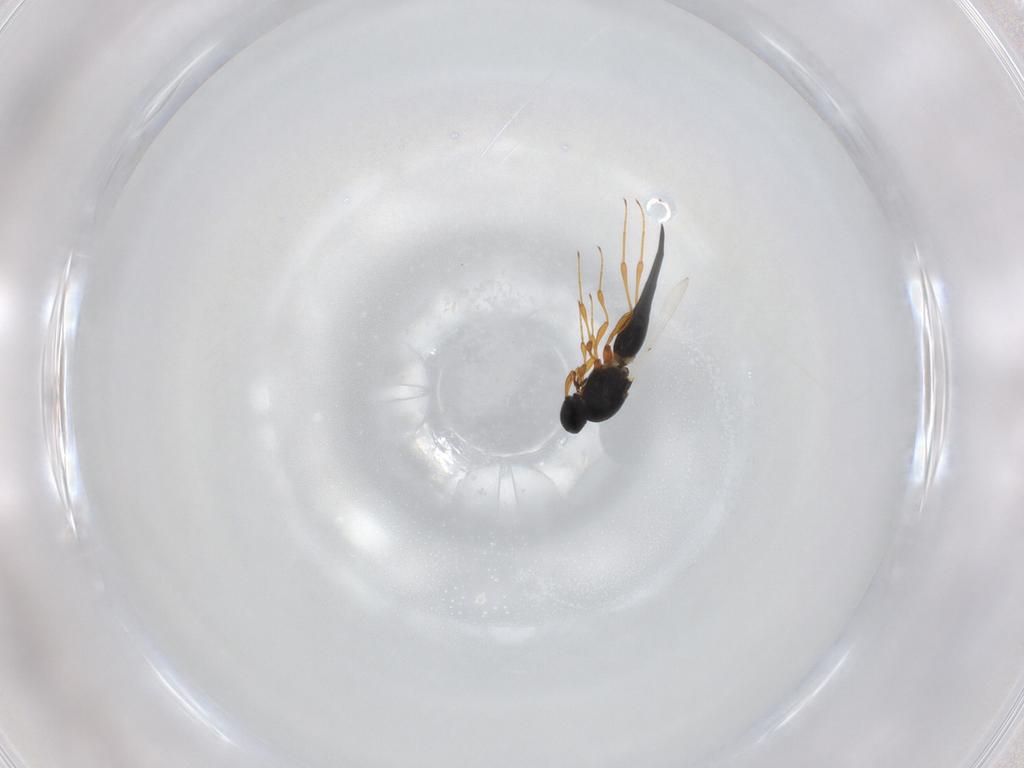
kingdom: Animalia
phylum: Arthropoda
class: Insecta
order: Hymenoptera
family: Platygastridae
